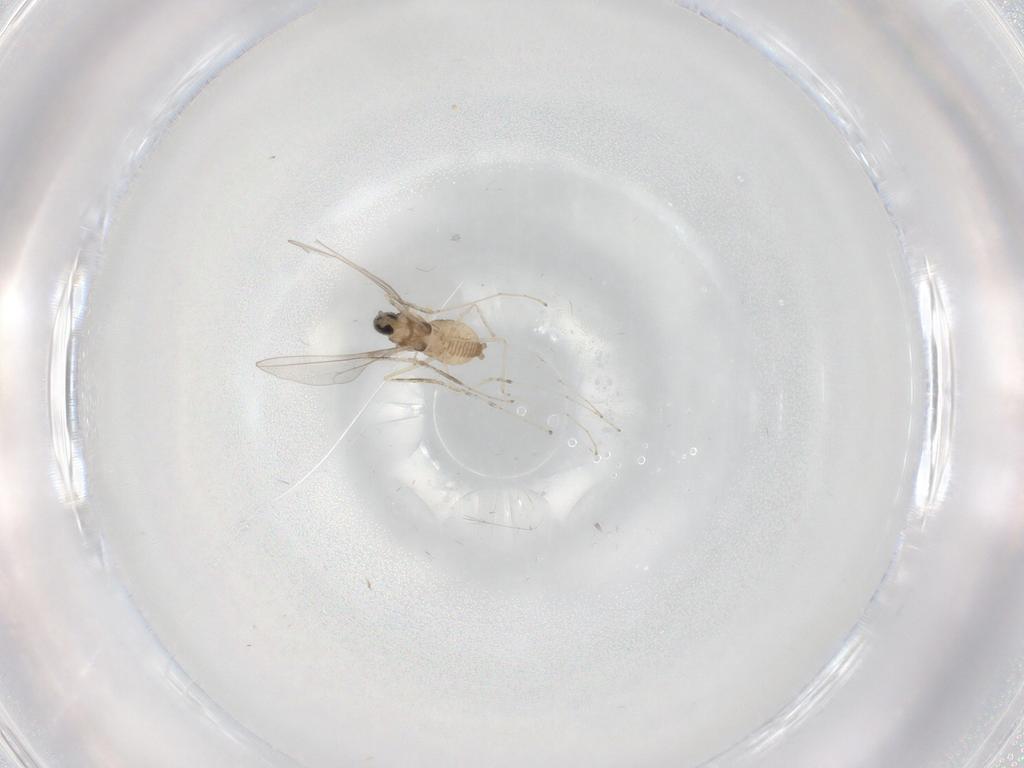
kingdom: Animalia
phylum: Arthropoda
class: Insecta
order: Diptera
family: Cecidomyiidae
